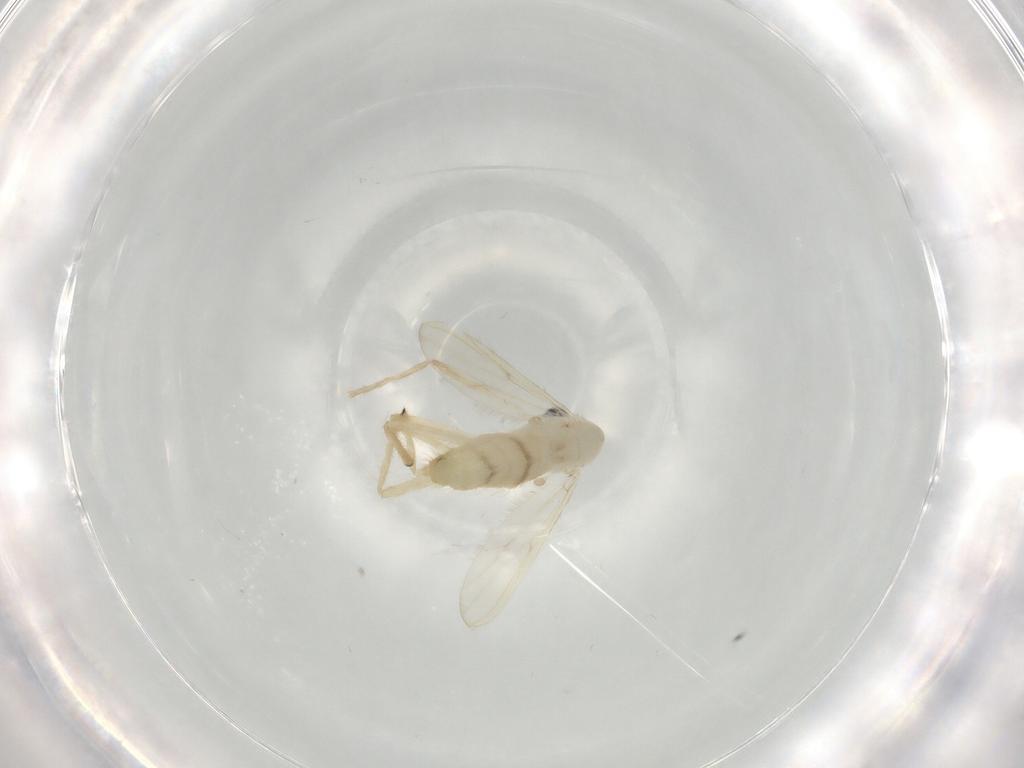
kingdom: Animalia
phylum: Arthropoda
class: Insecta
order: Diptera
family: Chironomidae
